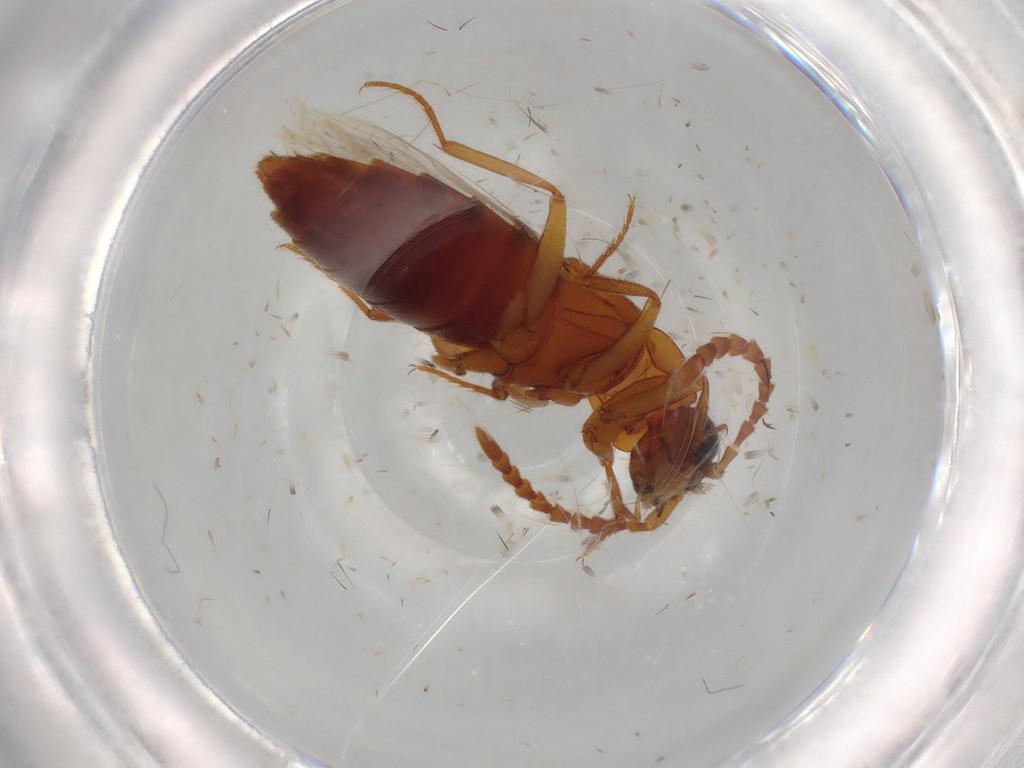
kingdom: Animalia
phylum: Arthropoda
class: Insecta
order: Coleoptera
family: Staphylinidae
